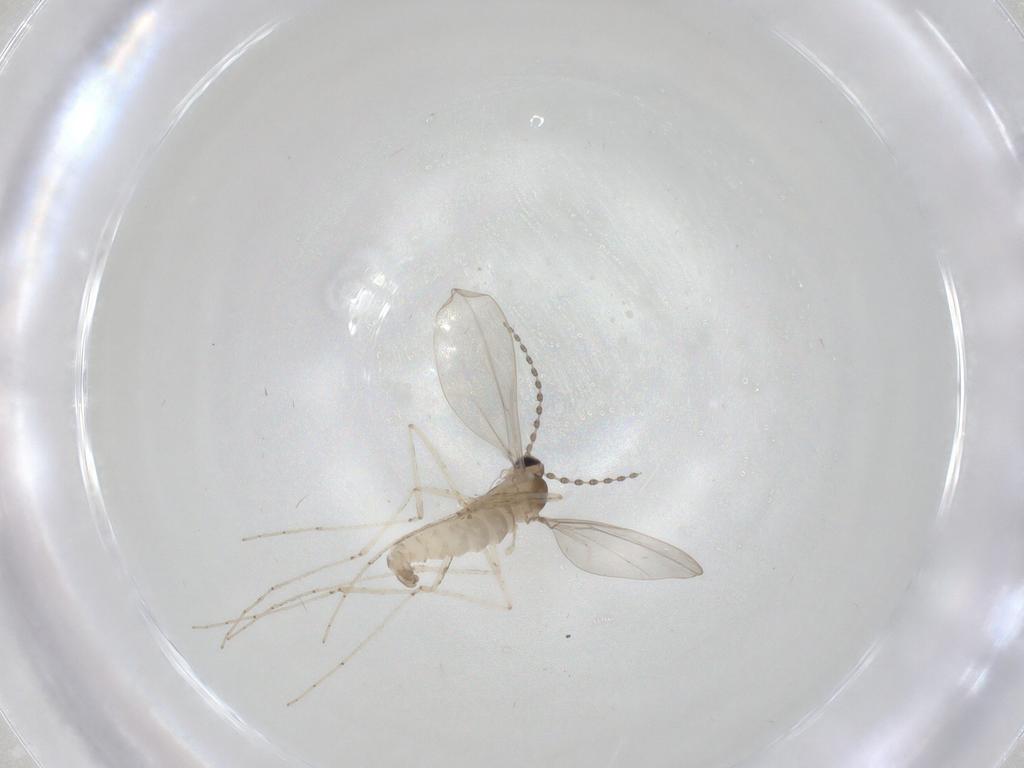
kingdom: Animalia
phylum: Arthropoda
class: Insecta
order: Diptera
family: Cecidomyiidae
